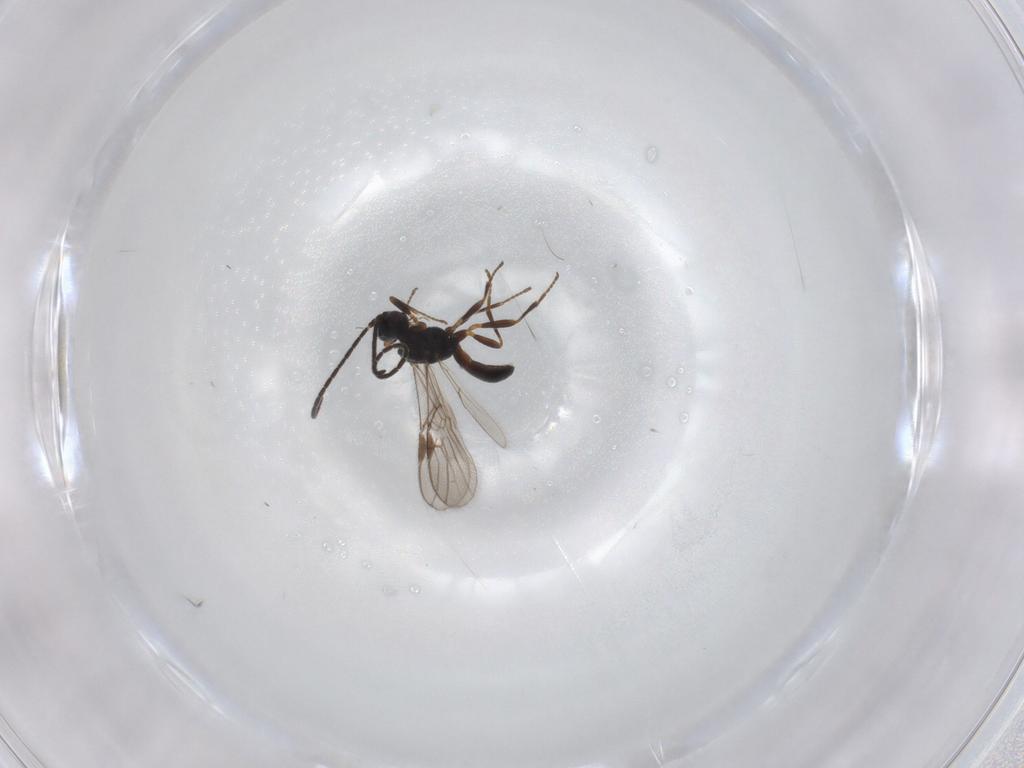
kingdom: Animalia
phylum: Arthropoda
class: Insecta
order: Hymenoptera
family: Braconidae
